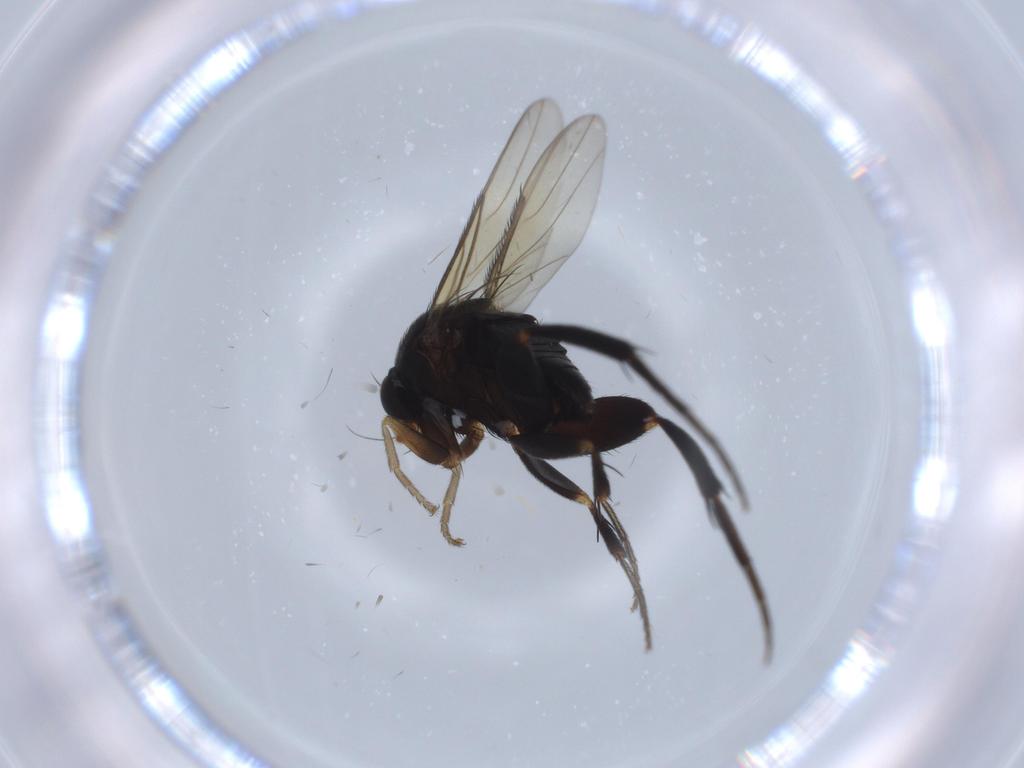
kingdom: Animalia
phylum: Arthropoda
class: Insecta
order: Diptera
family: Phoridae
